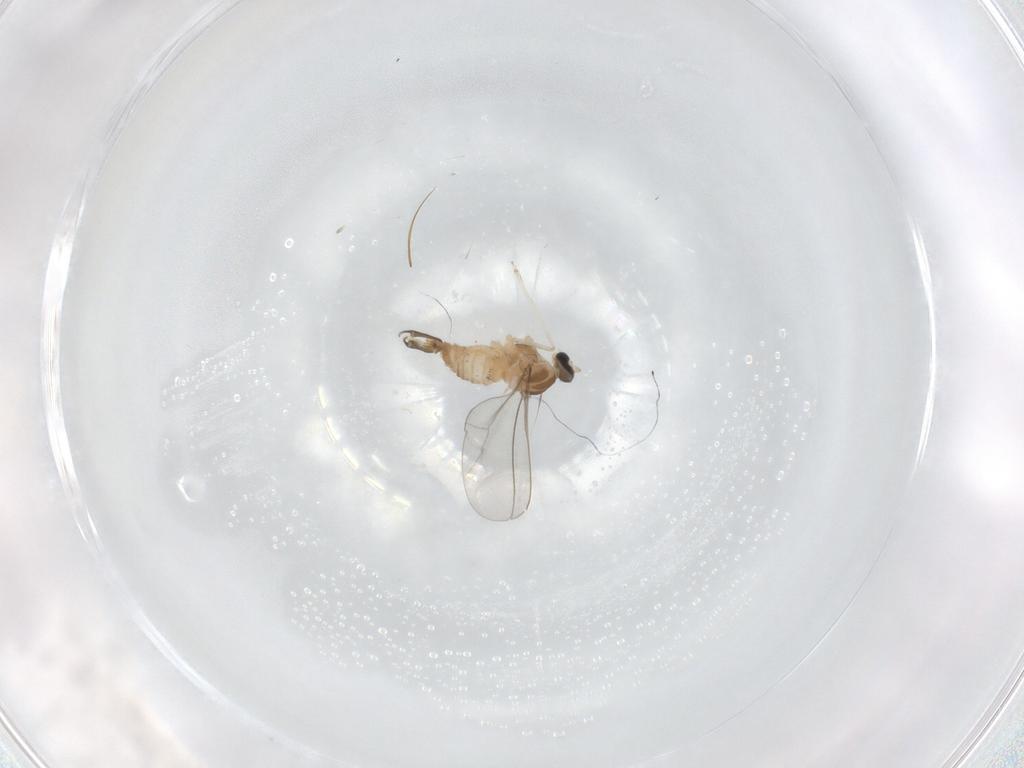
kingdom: Animalia
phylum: Arthropoda
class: Insecta
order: Diptera
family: Cecidomyiidae
